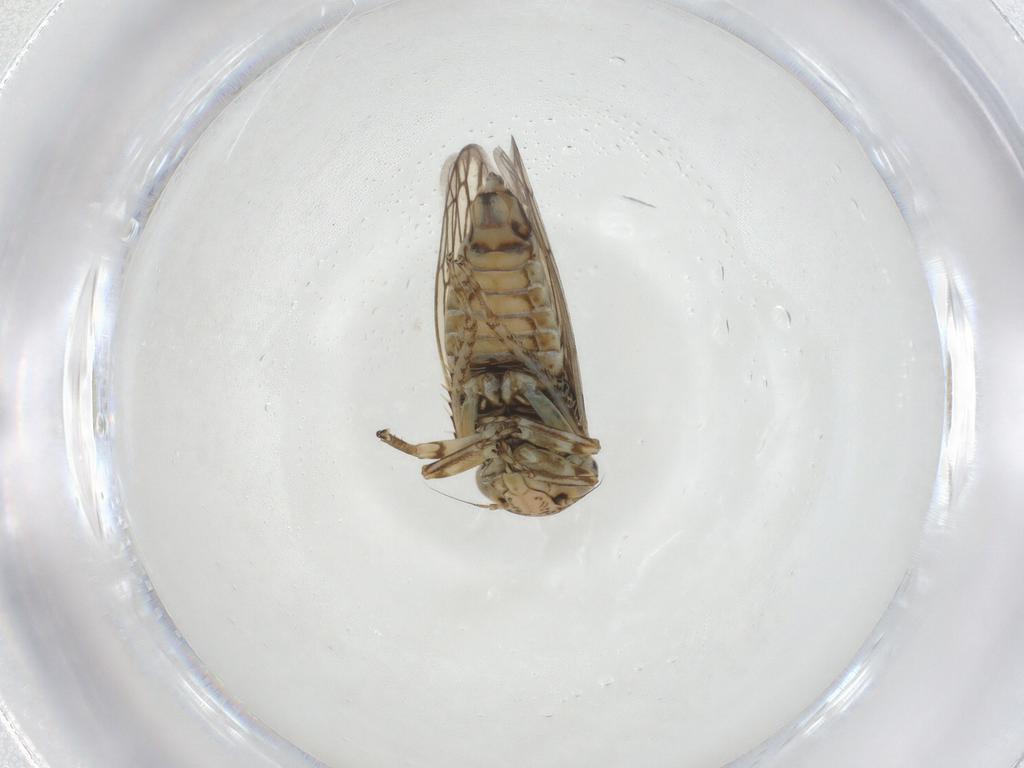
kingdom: Animalia
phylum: Arthropoda
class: Insecta
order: Hemiptera
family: Cicadellidae
